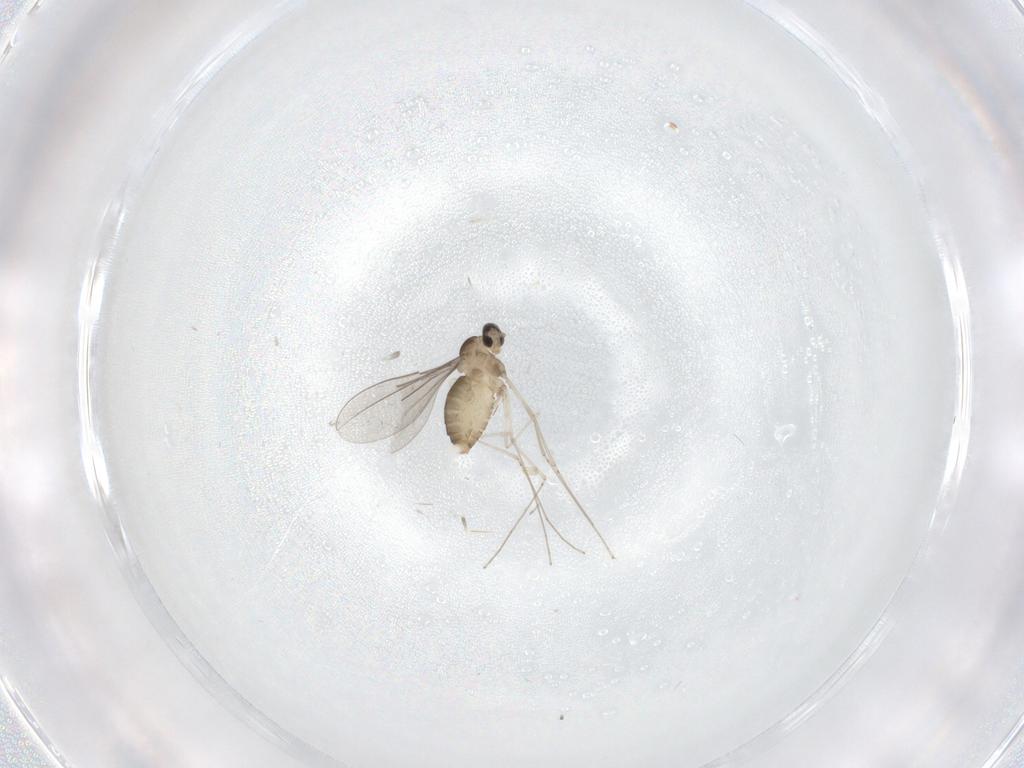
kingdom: Animalia
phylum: Arthropoda
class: Insecta
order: Diptera
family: Cecidomyiidae
